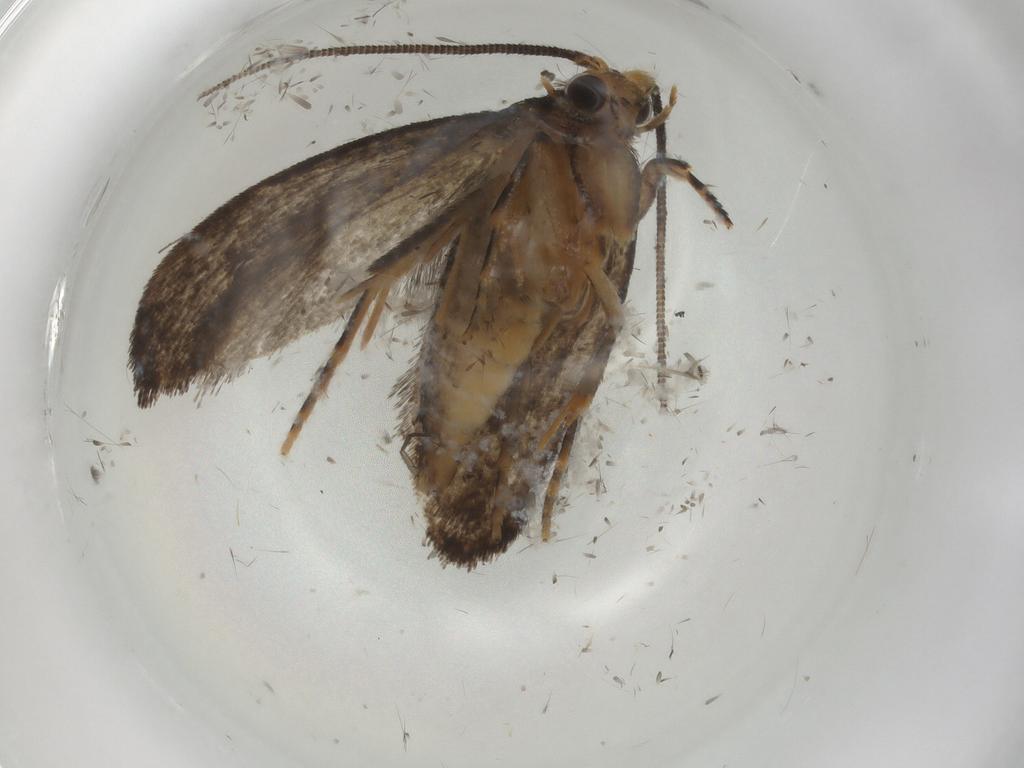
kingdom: Animalia
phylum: Arthropoda
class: Insecta
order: Lepidoptera
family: Tineidae
